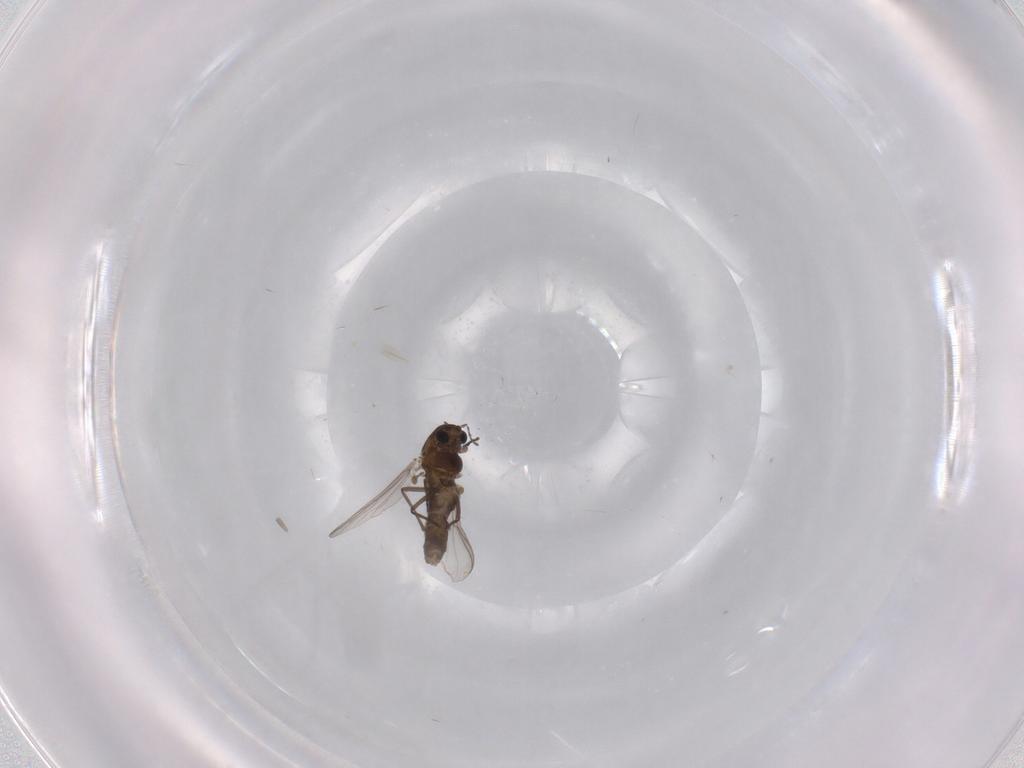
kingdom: Animalia
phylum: Arthropoda
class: Insecta
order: Diptera
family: Chironomidae
